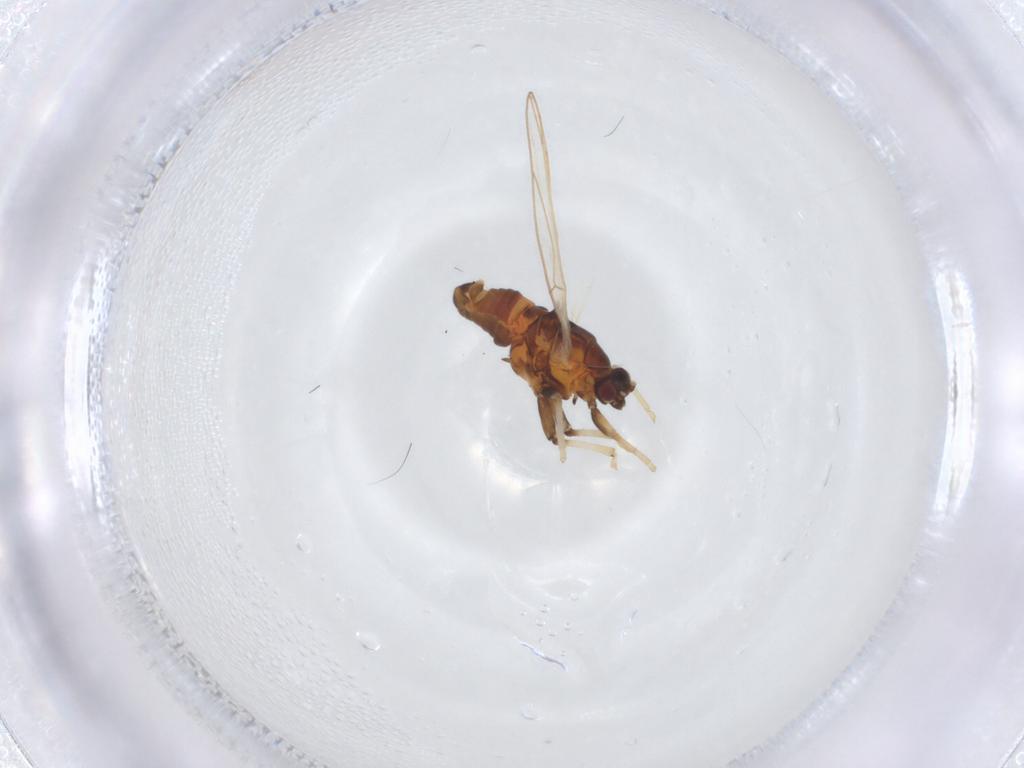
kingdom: Animalia
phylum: Arthropoda
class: Insecta
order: Hemiptera
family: Triozidae
